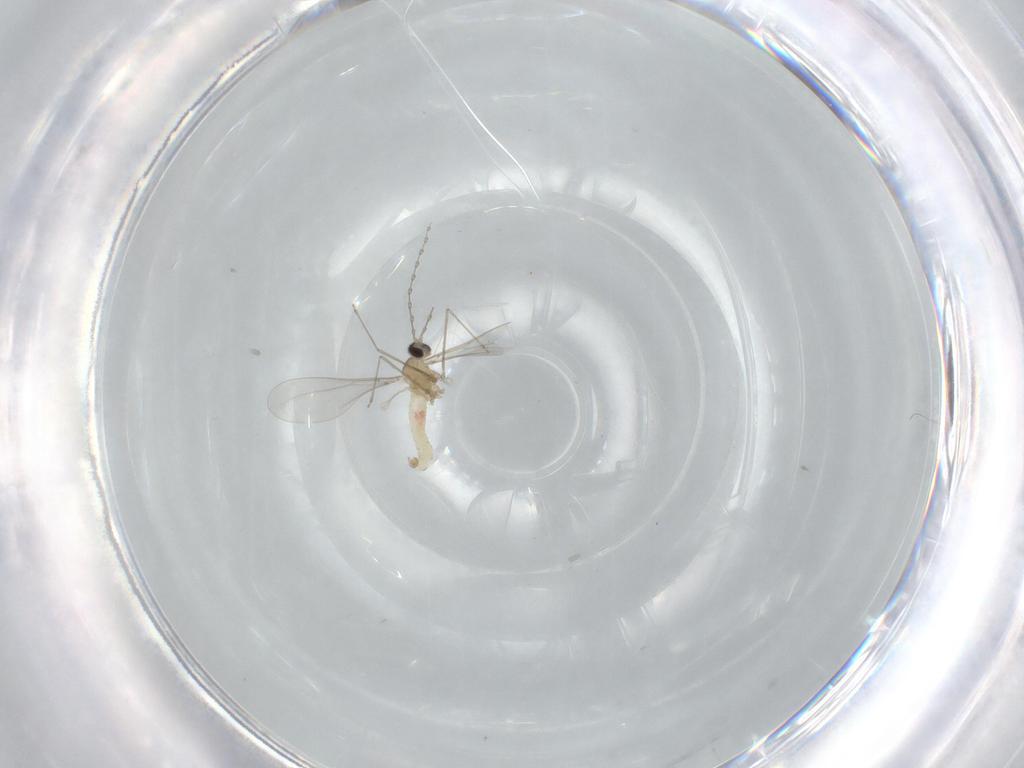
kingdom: Animalia
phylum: Arthropoda
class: Insecta
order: Diptera
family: Cecidomyiidae
